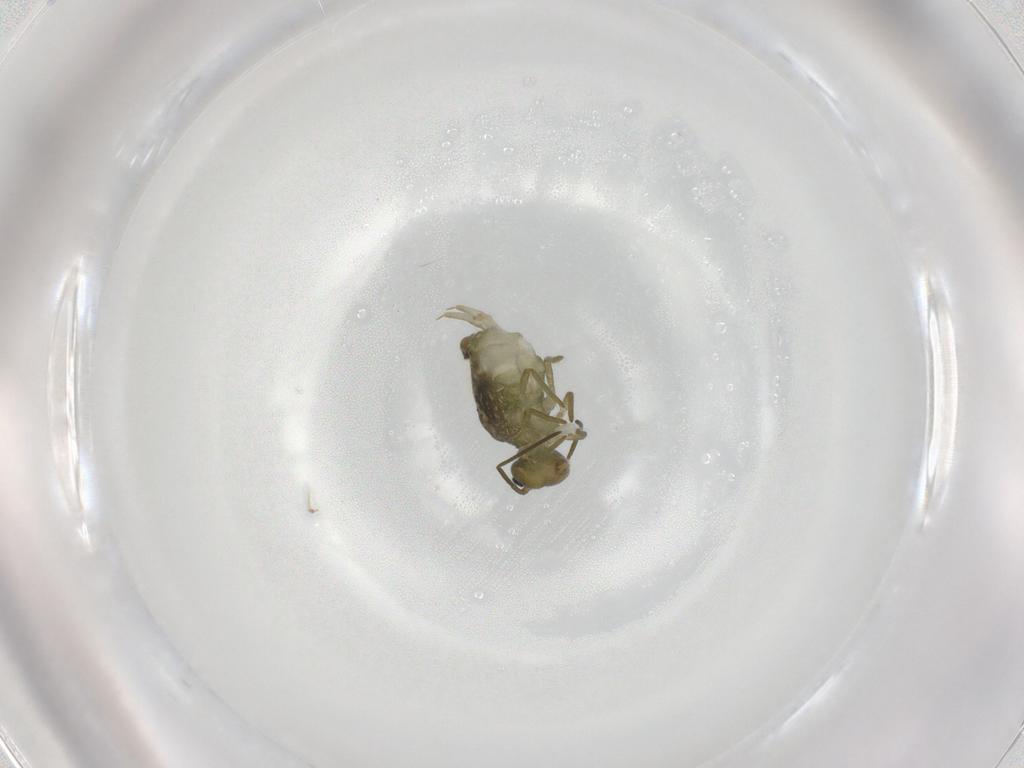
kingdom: Animalia
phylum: Arthropoda
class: Collembola
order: Symphypleona
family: Sminthuridae
